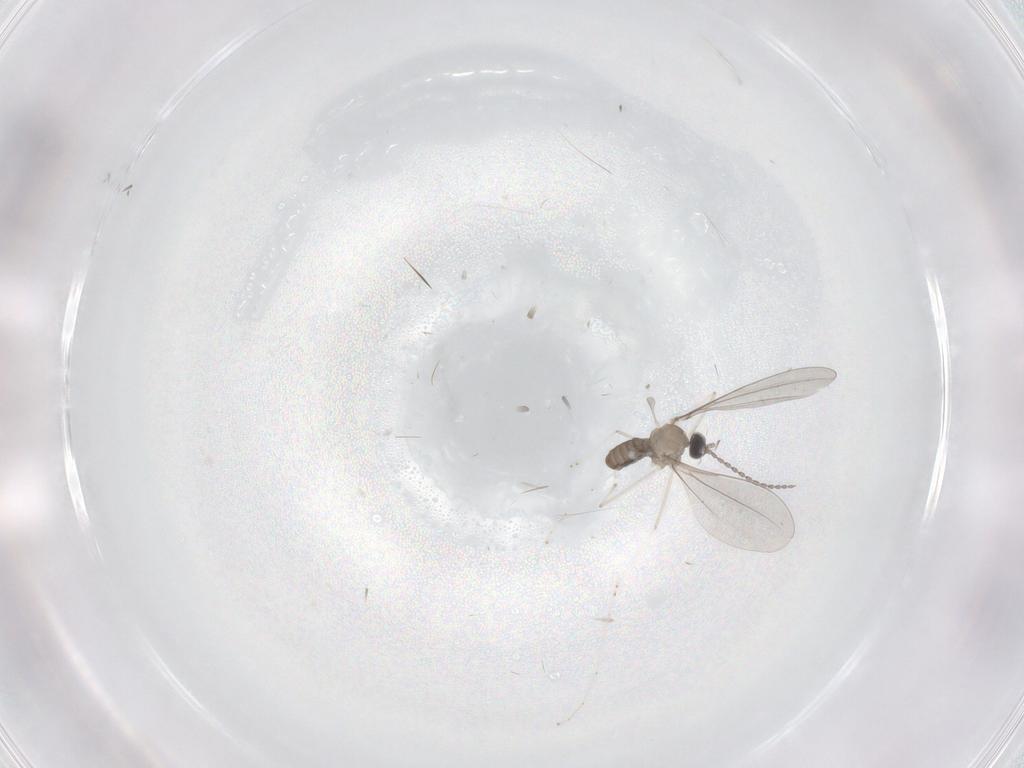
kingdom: Animalia
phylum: Arthropoda
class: Insecta
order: Diptera
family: Cecidomyiidae
